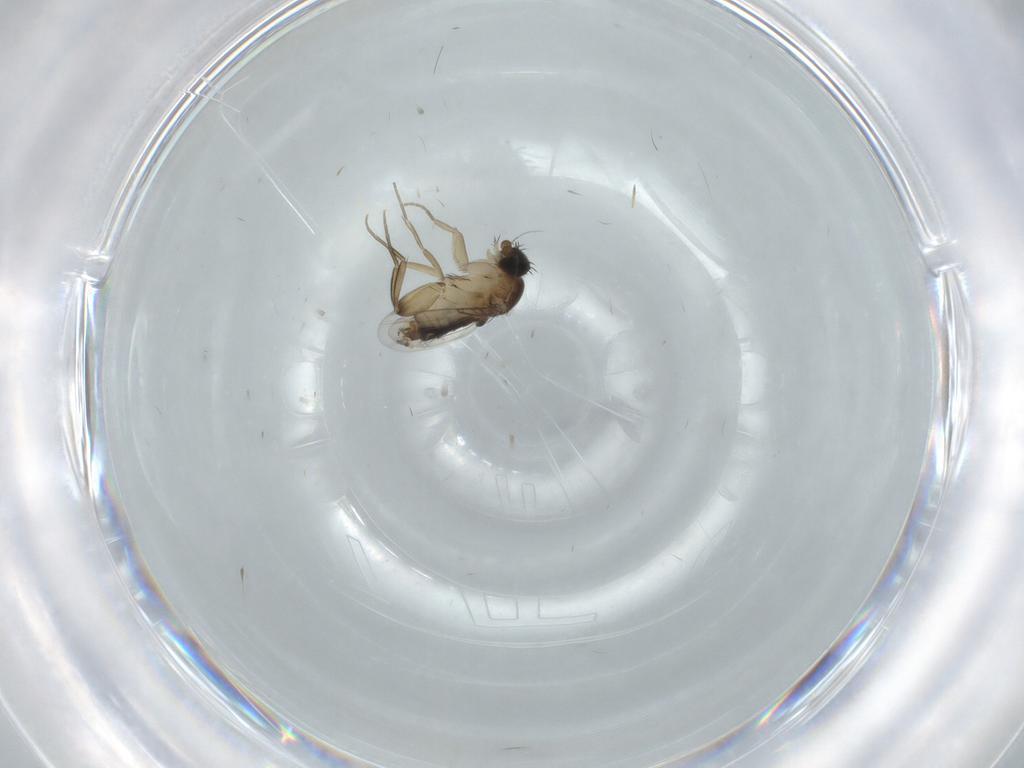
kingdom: Animalia
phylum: Arthropoda
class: Insecta
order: Diptera
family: Phoridae
